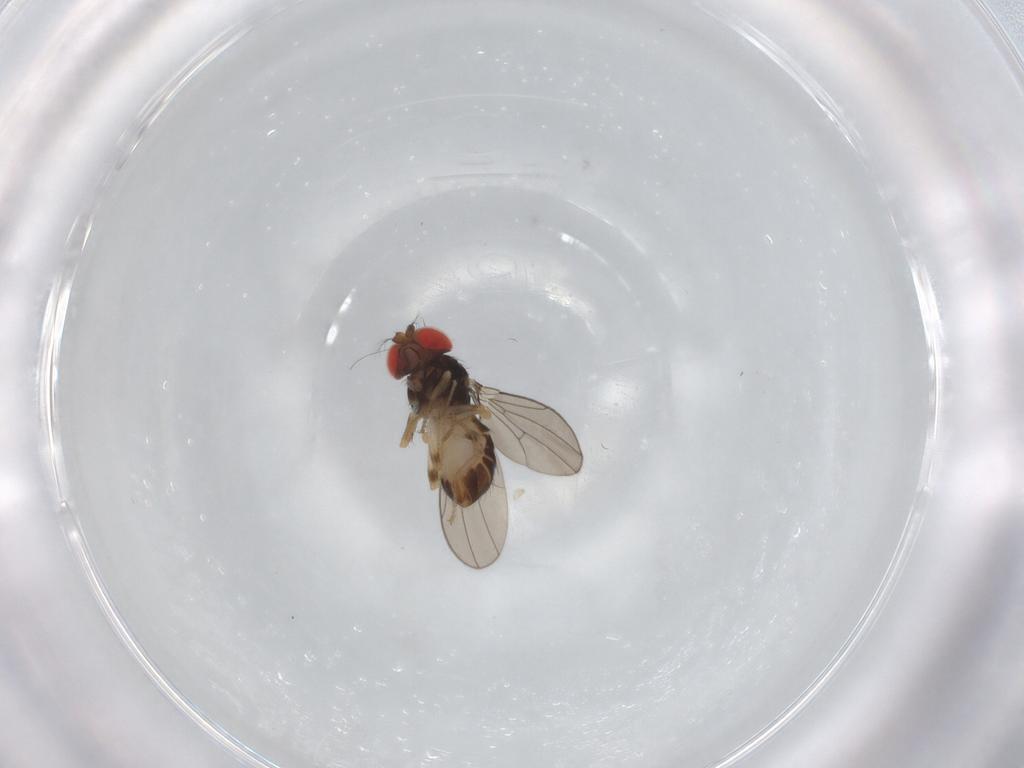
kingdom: Animalia
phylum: Arthropoda
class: Insecta
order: Diptera
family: Drosophilidae
